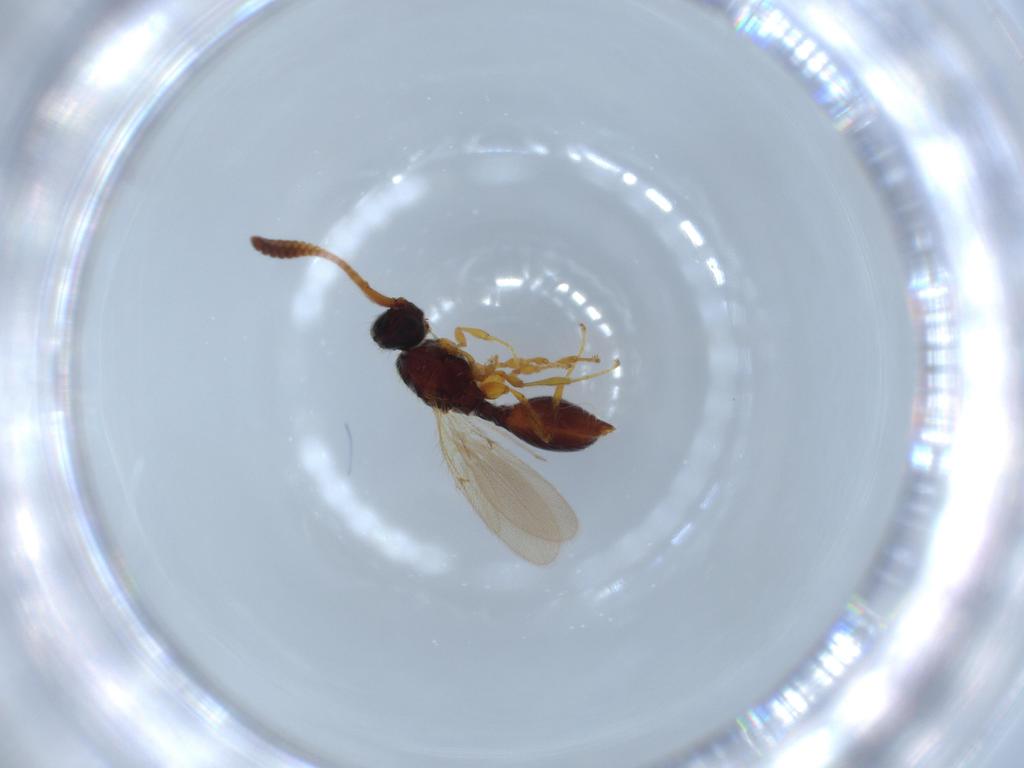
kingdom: Animalia
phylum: Arthropoda
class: Insecta
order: Hymenoptera
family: Diapriidae
